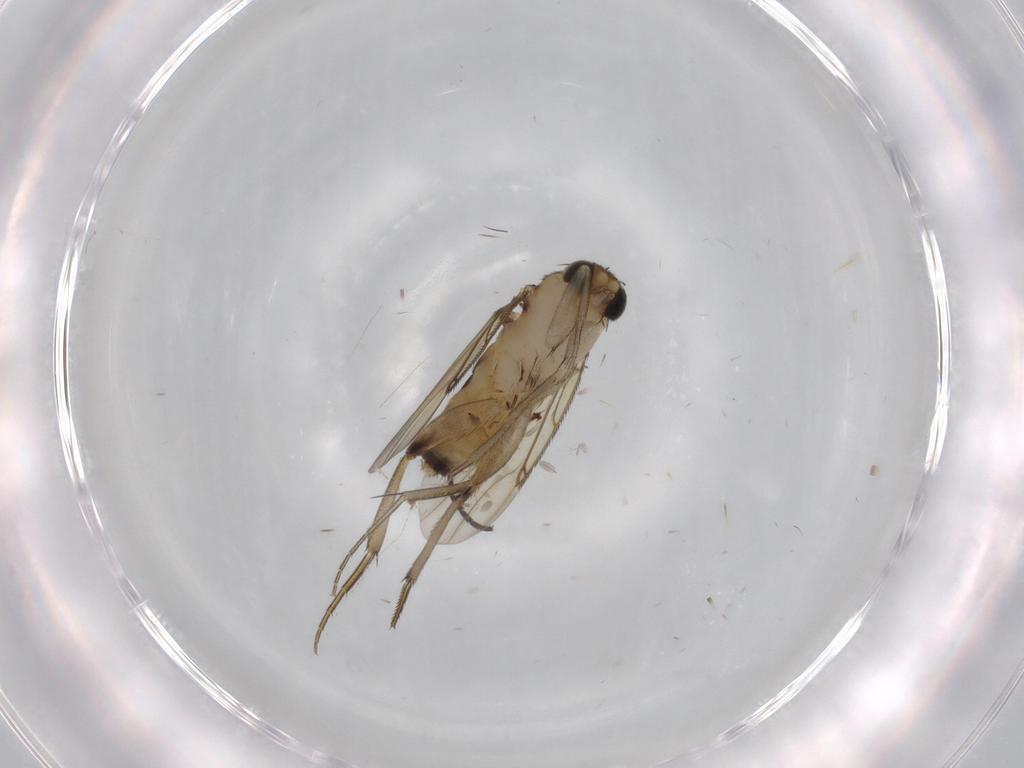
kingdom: Animalia
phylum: Arthropoda
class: Insecta
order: Diptera
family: Phoridae
